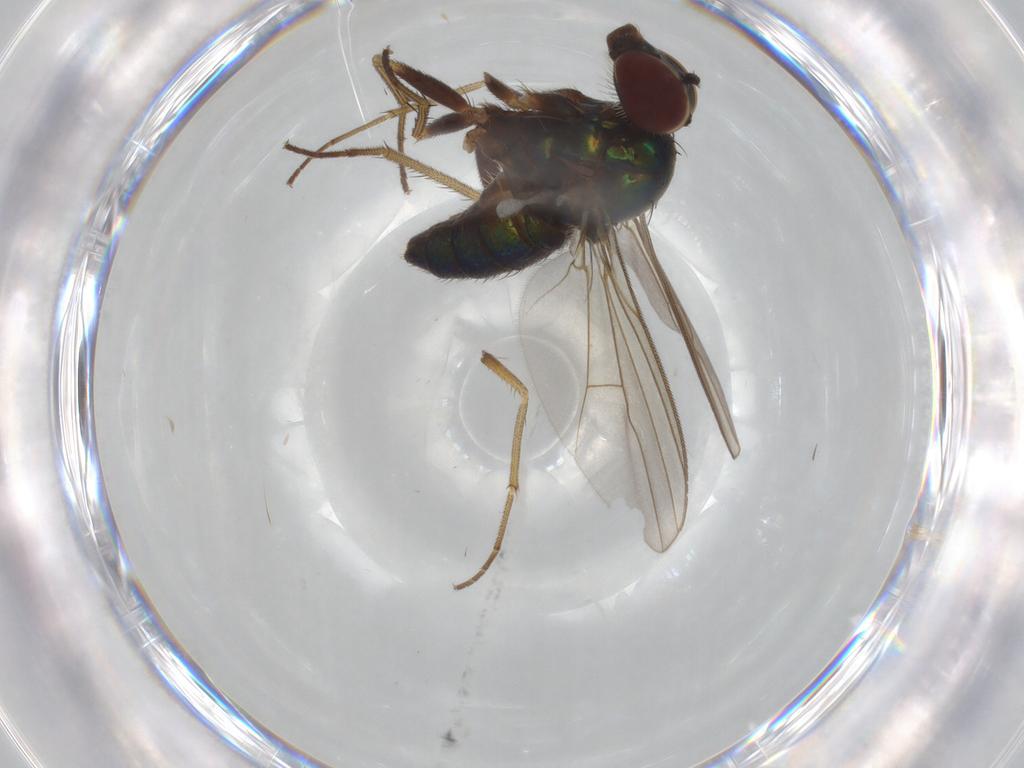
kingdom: Animalia
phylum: Arthropoda
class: Insecta
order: Diptera
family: Dolichopodidae
